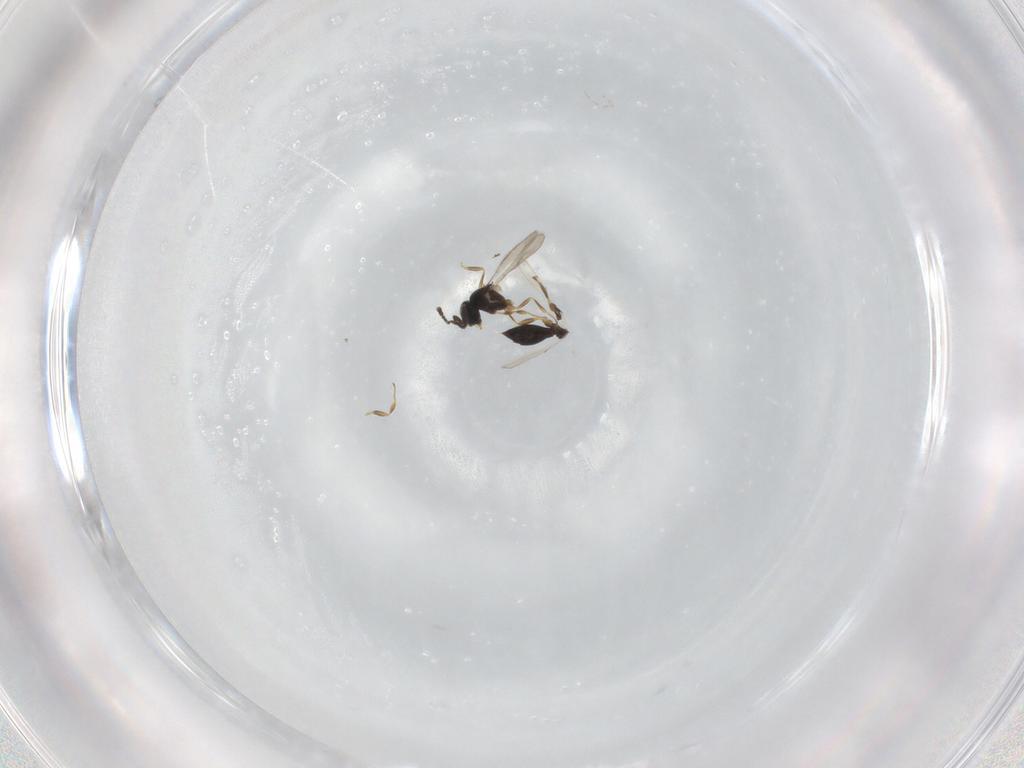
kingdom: Animalia
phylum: Arthropoda
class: Insecta
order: Hymenoptera
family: Scelionidae
